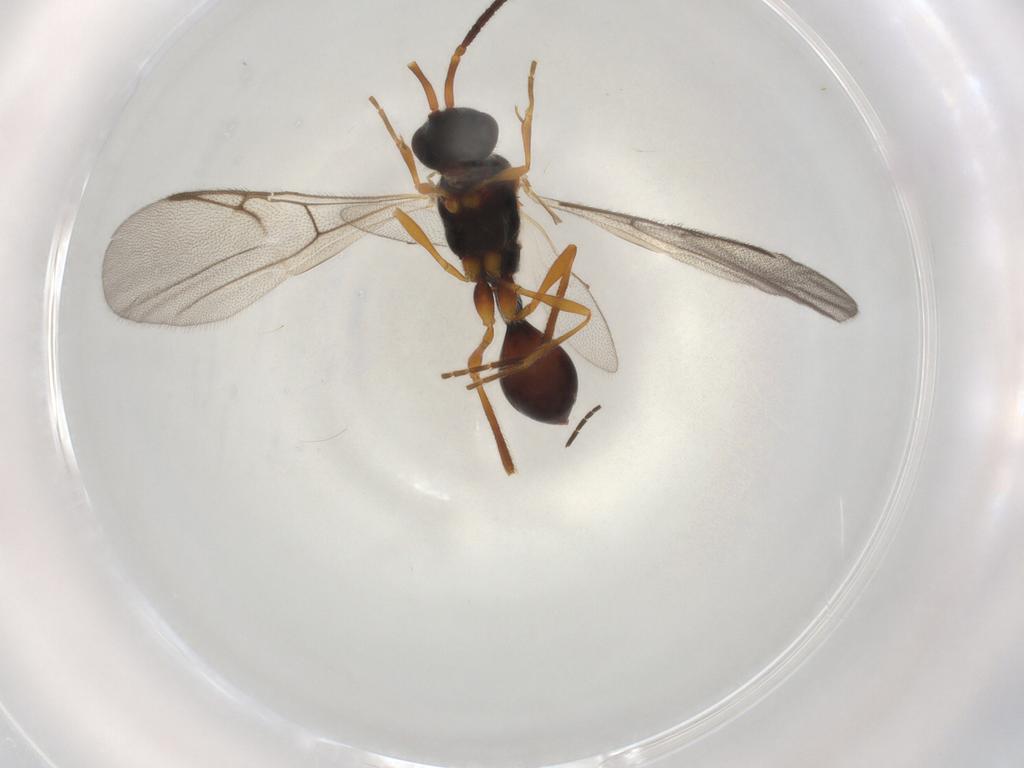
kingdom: Animalia
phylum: Arthropoda
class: Insecta
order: Hymenoptera
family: Diapriidae
